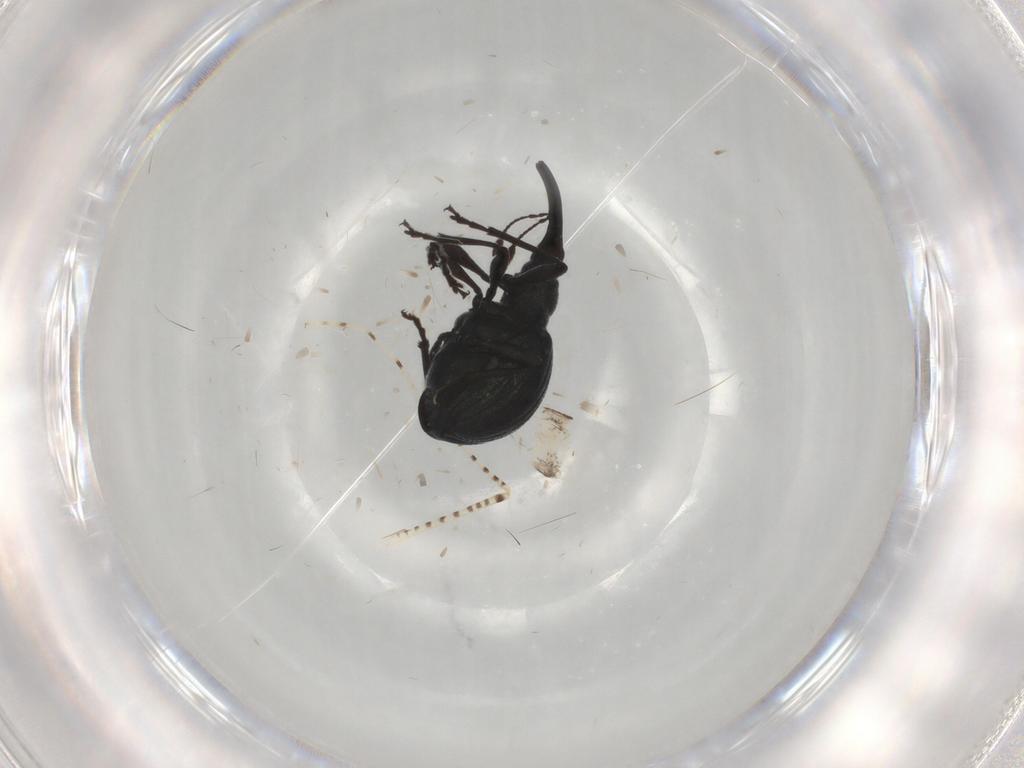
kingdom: Animalia
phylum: Arthropoda
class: Insecta
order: Coleoptera
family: Brentidae
